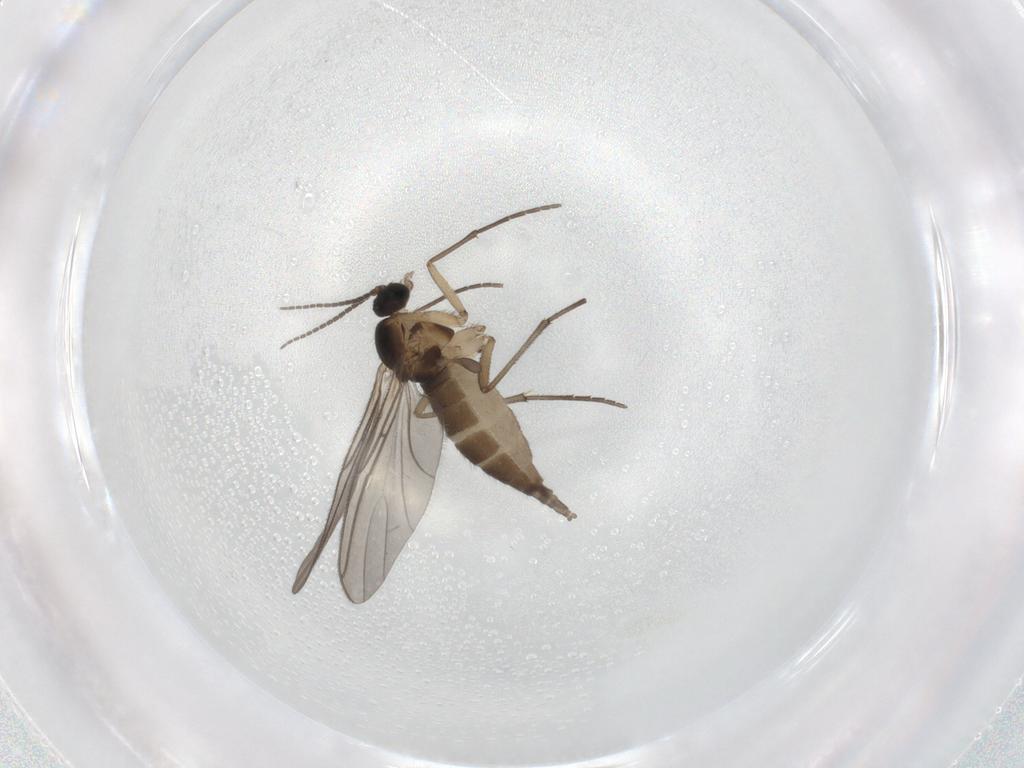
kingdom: Animalia
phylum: Arthropoda
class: Insecta
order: Diptera
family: Sciaridae
